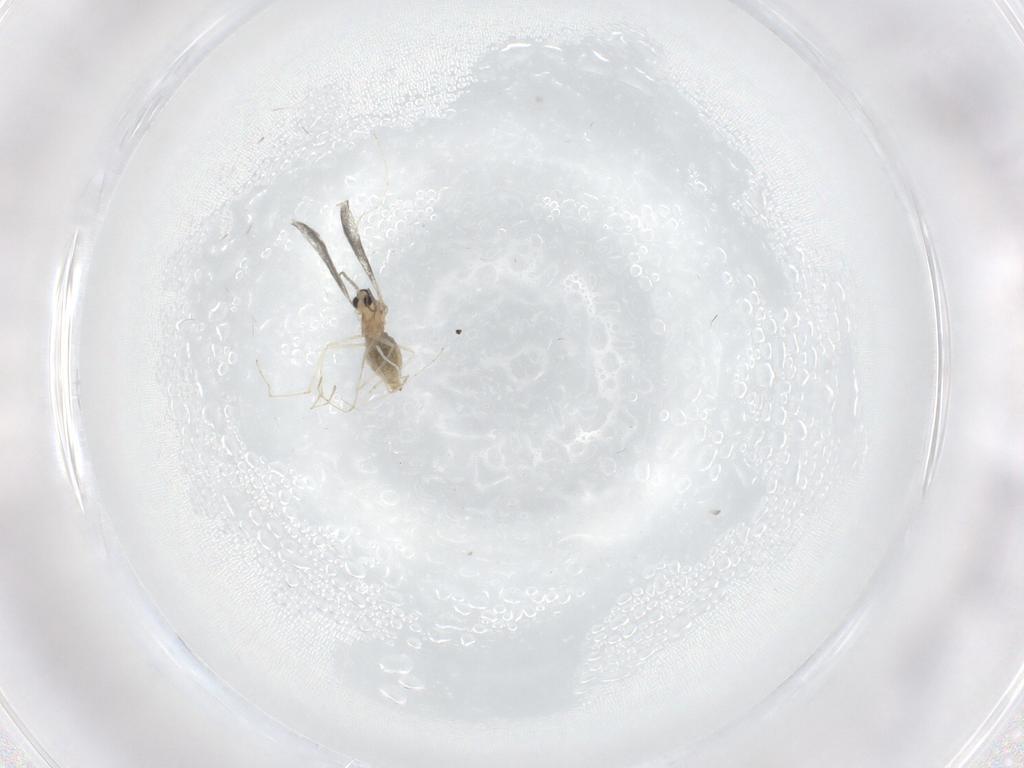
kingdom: Animalia
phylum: Arthropoda
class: Insecta
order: Diptera
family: Cecidomyiidae
